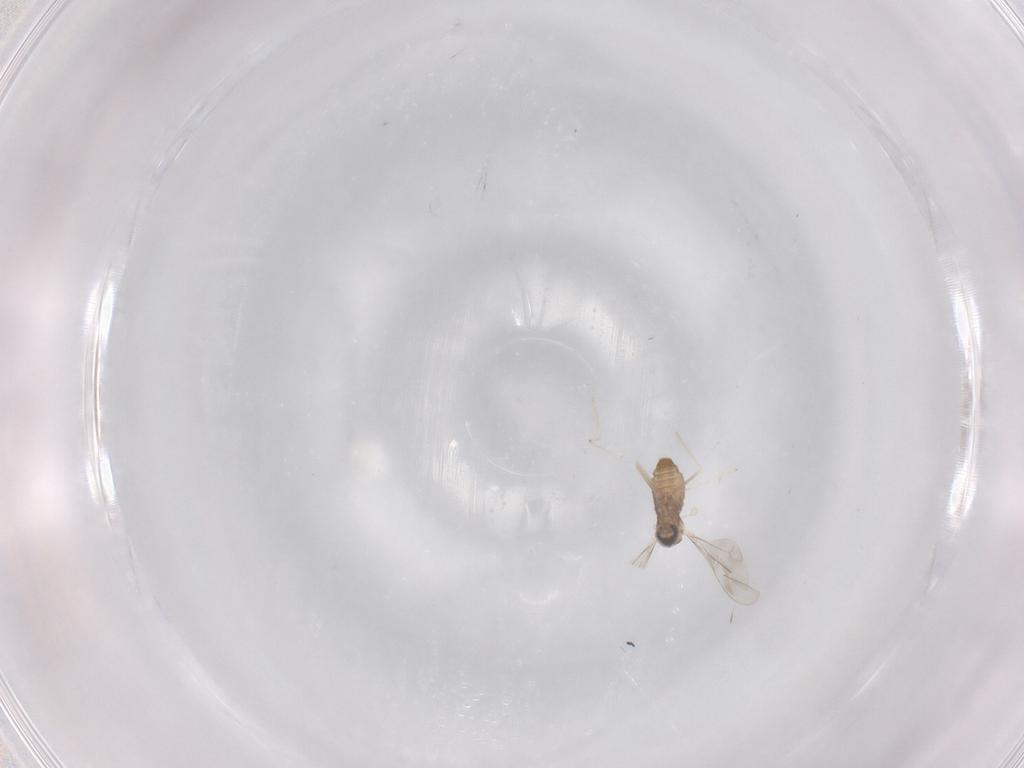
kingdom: Animalia
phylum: Arthropoda
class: Insecta
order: Diptera
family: Cecidomyiidae
